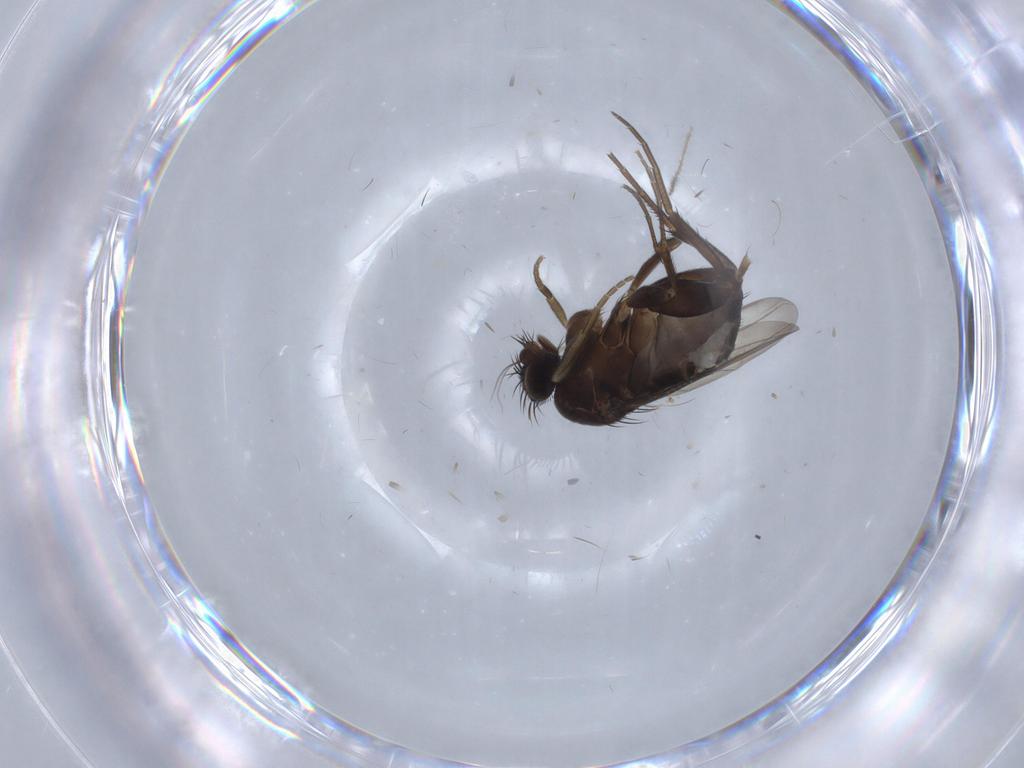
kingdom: Animalia
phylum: Arthropoda
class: Insecta
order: Diptera
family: Phoridae
